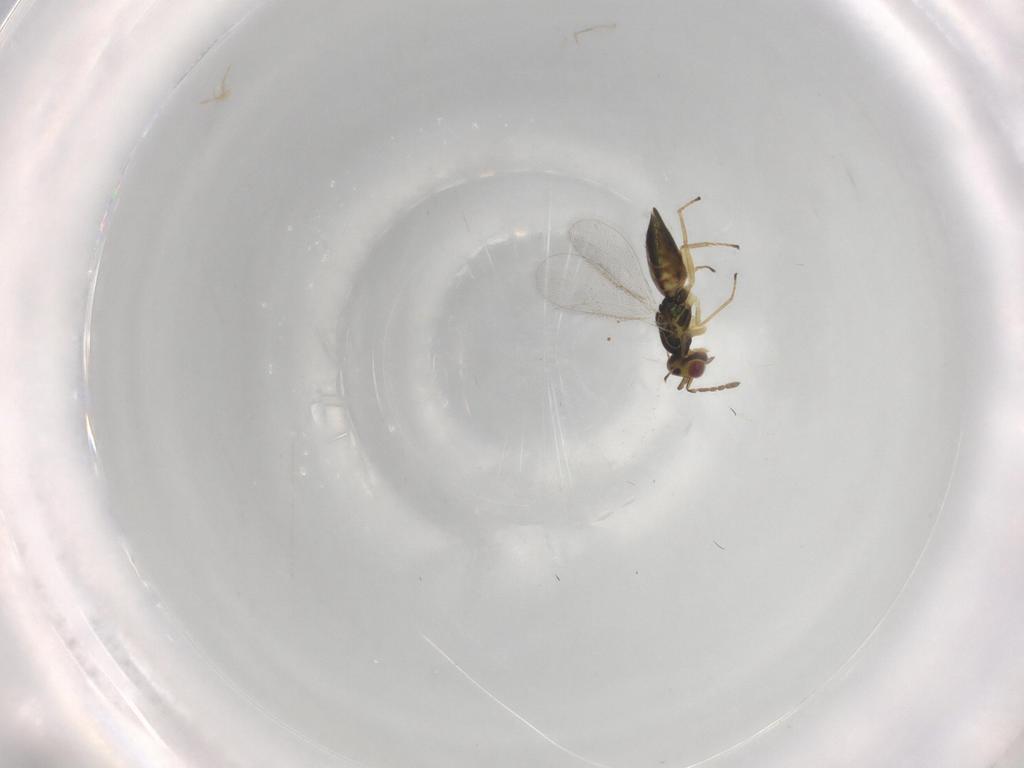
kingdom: Animalia
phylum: Arthropoda
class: Insecta
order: Hymenoptera
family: Eulophidae
